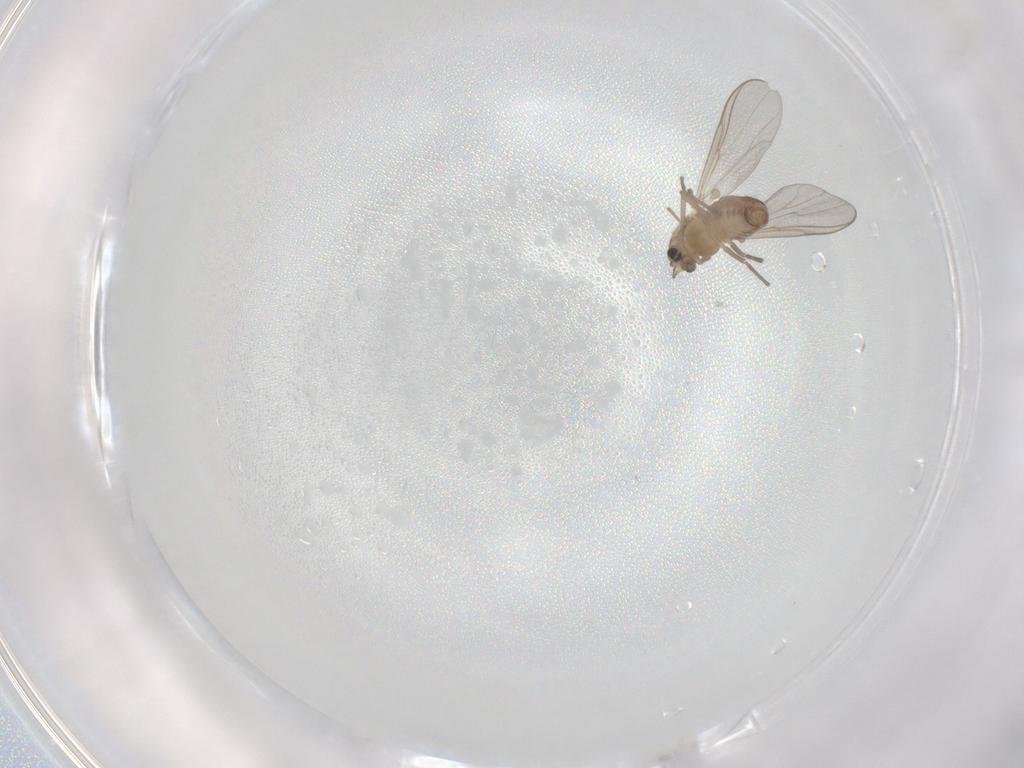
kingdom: Animalia
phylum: Arthropoda
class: Insecta
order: Diptera
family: Chironomidae
